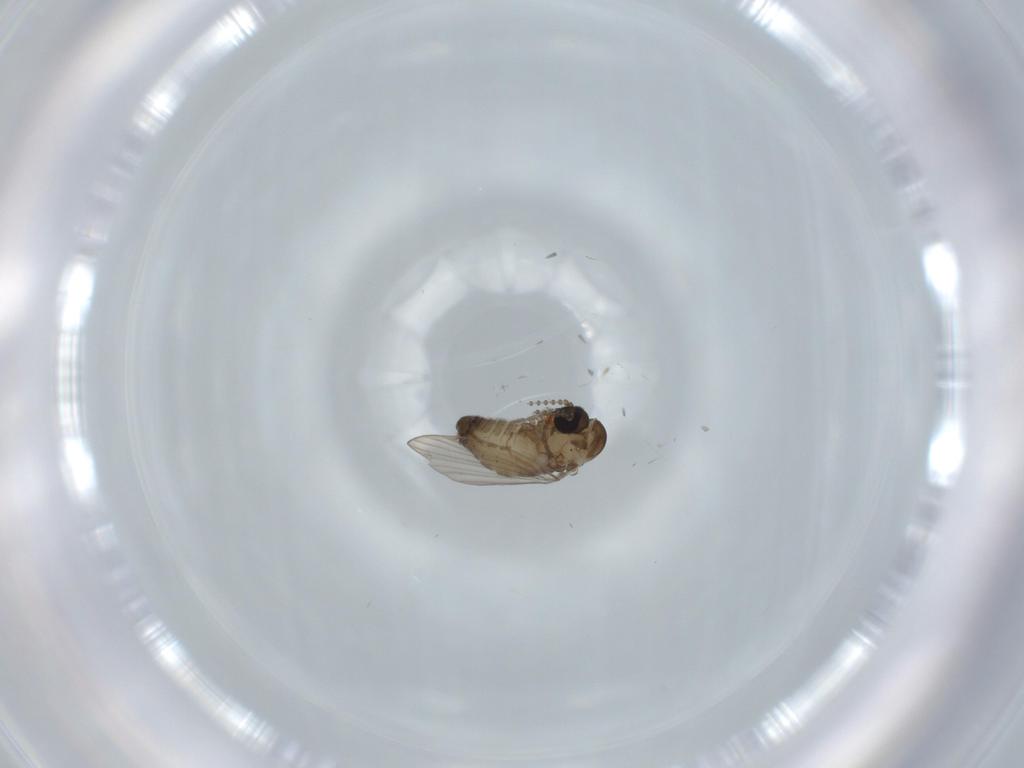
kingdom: Animalia
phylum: Arthropoda
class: Insecta
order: Diptera
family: Psychodidae
